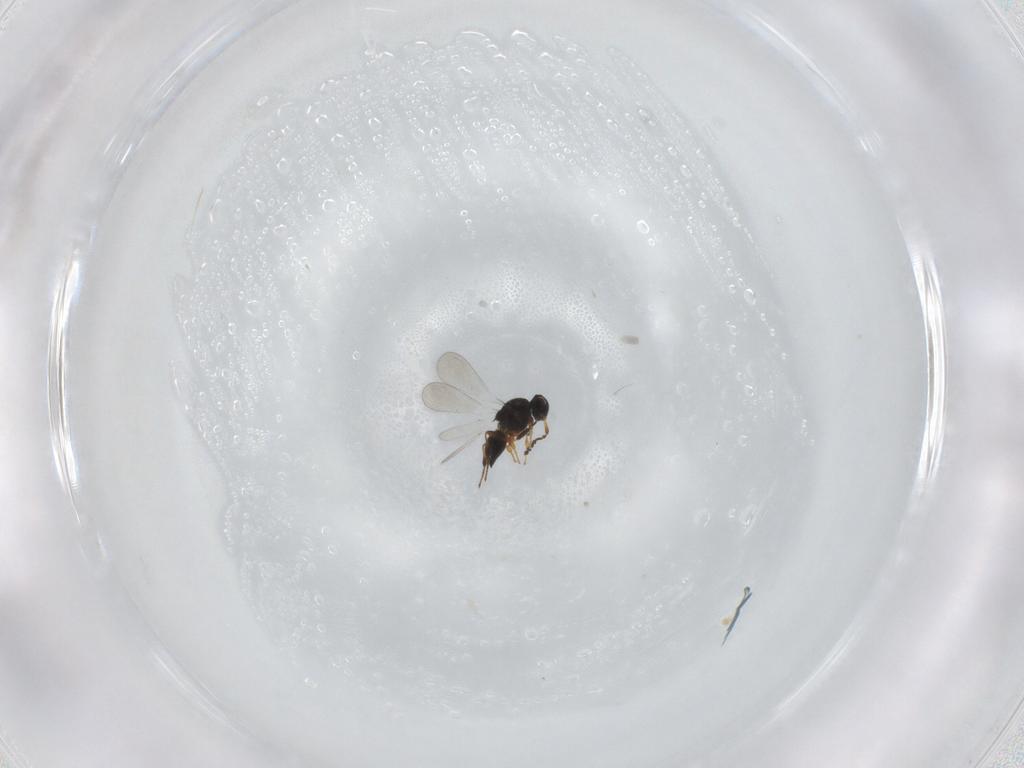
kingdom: Animalia
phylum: Arthropoda
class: Insecta
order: Hymenoptera
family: Platygastridae
